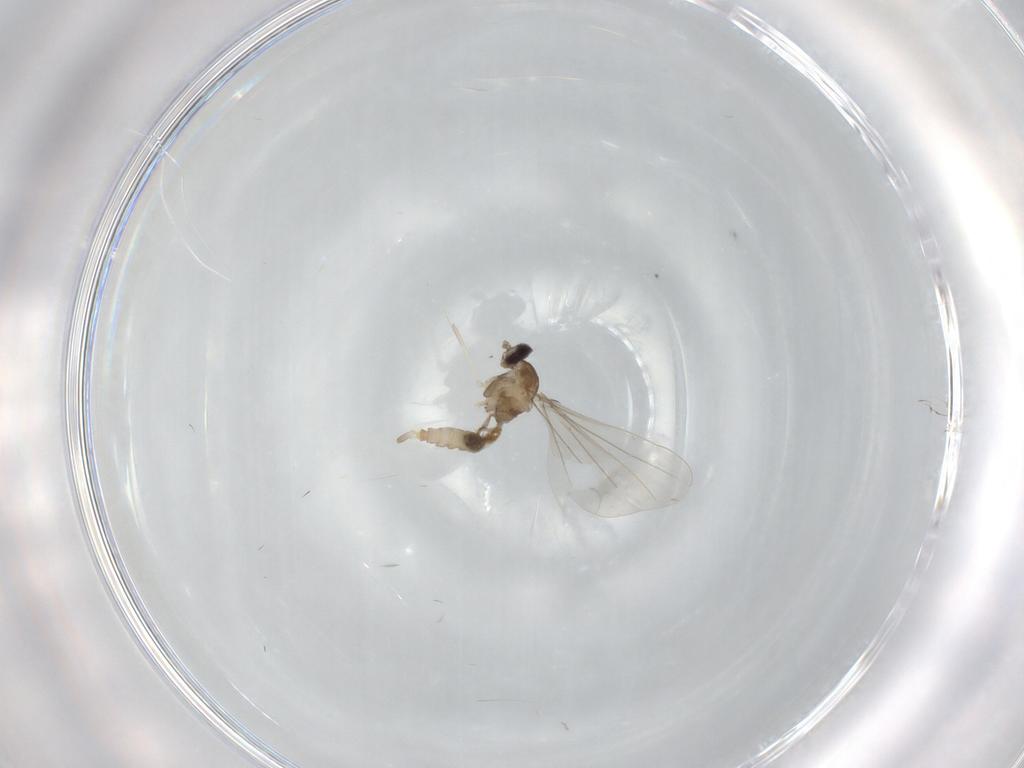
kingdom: Animalia
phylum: Arthropoda
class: Insecta
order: Diptera
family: Cecidomyiidae
